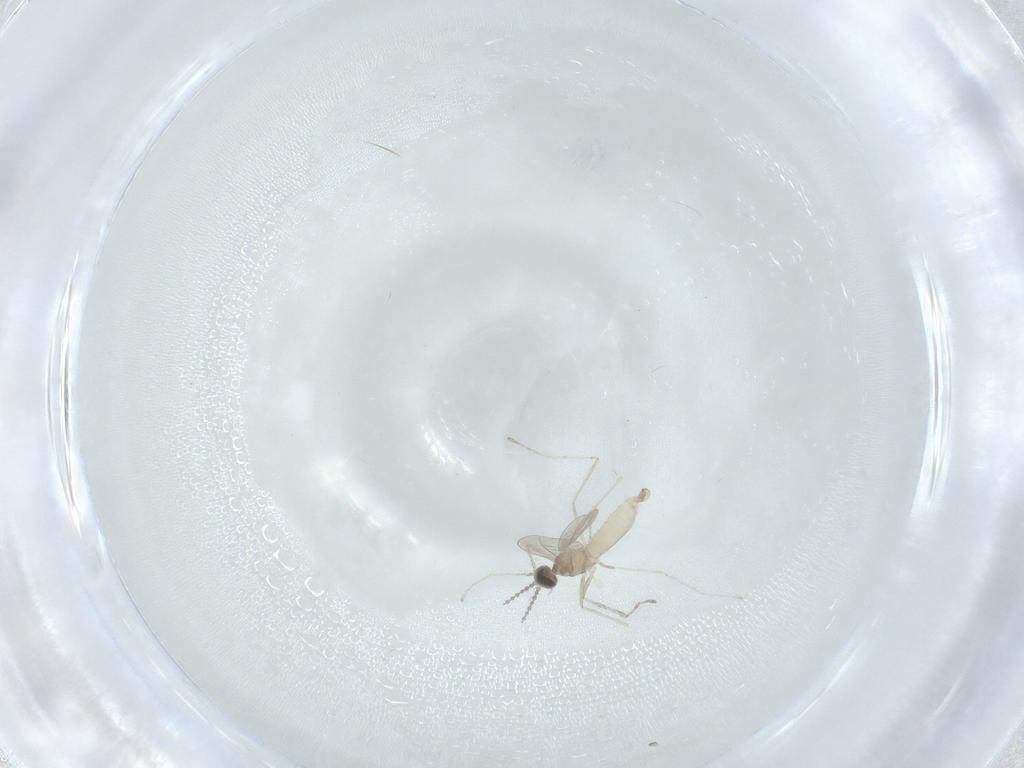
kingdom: Animalia
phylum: Arthropoda
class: Insecta
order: Diptera
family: Cecidomyiidae
